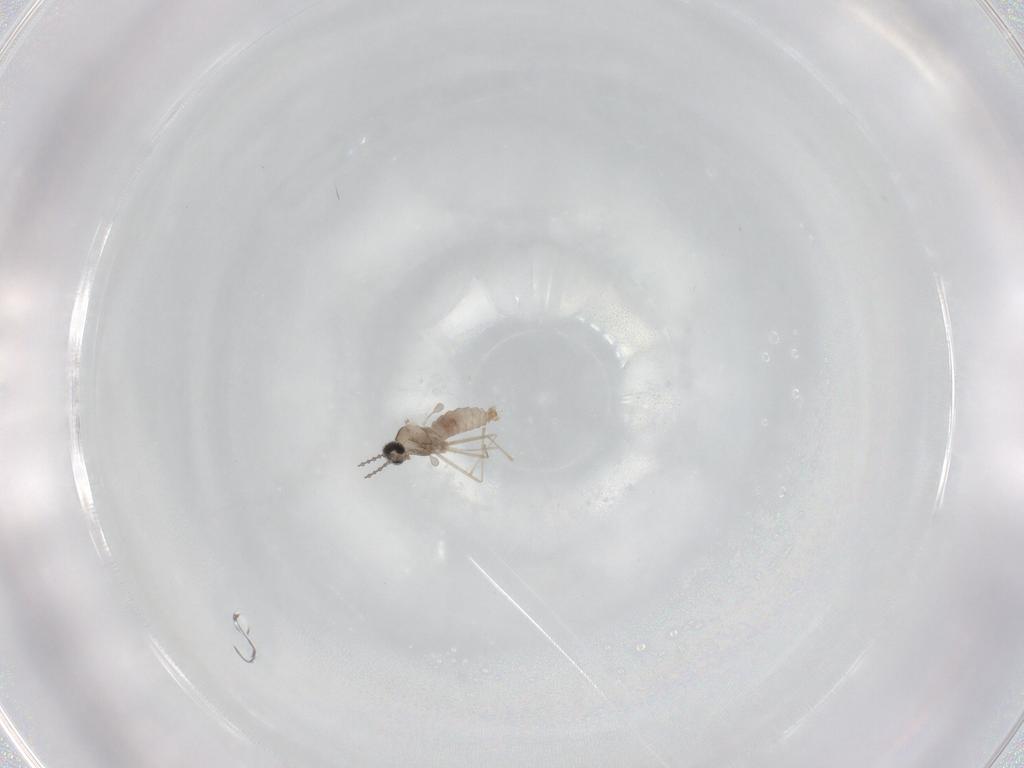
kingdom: Animalia
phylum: Arthropoda
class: Insecta
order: Diptera
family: Cecidomyiidae
